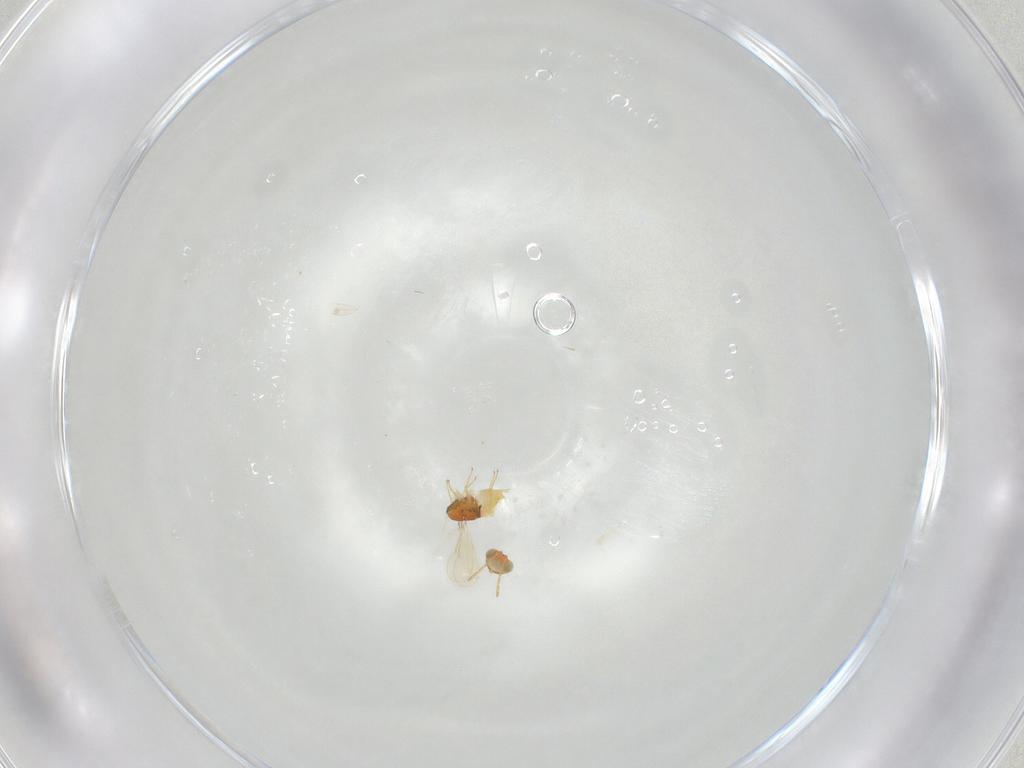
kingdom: Animalia
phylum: Arthropoda
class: Insecta
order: Hymenoptera
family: Aphelinidae
